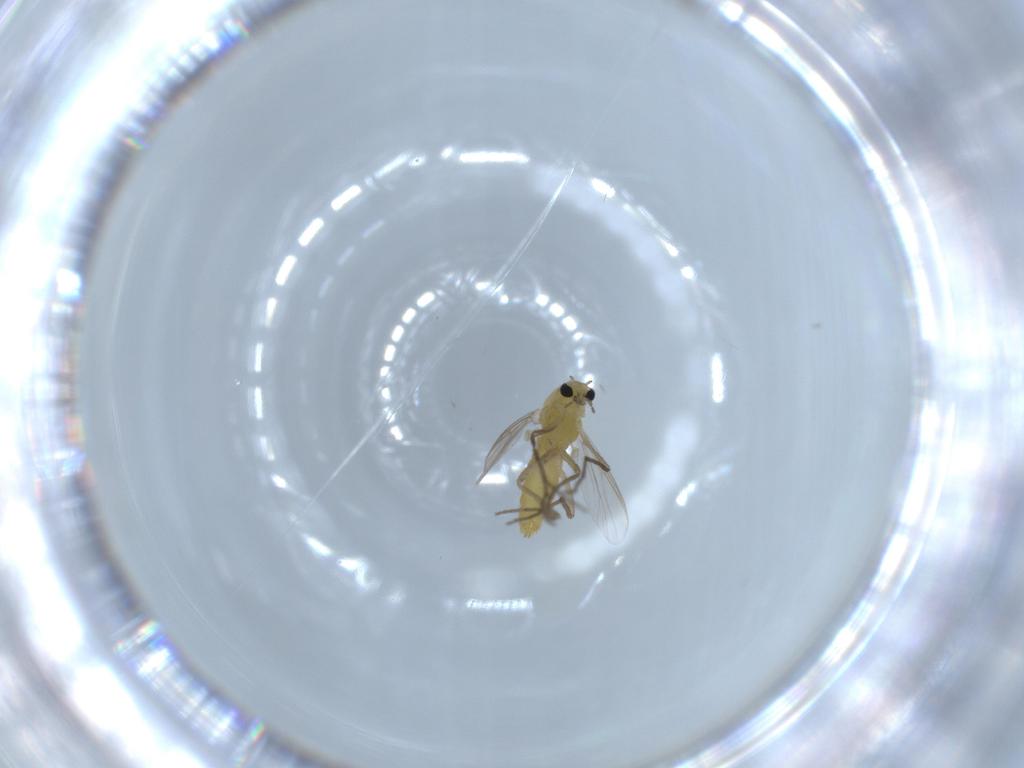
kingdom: Animalia
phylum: Arthropoda
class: Insecta
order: Diptera
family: Chironomidae
